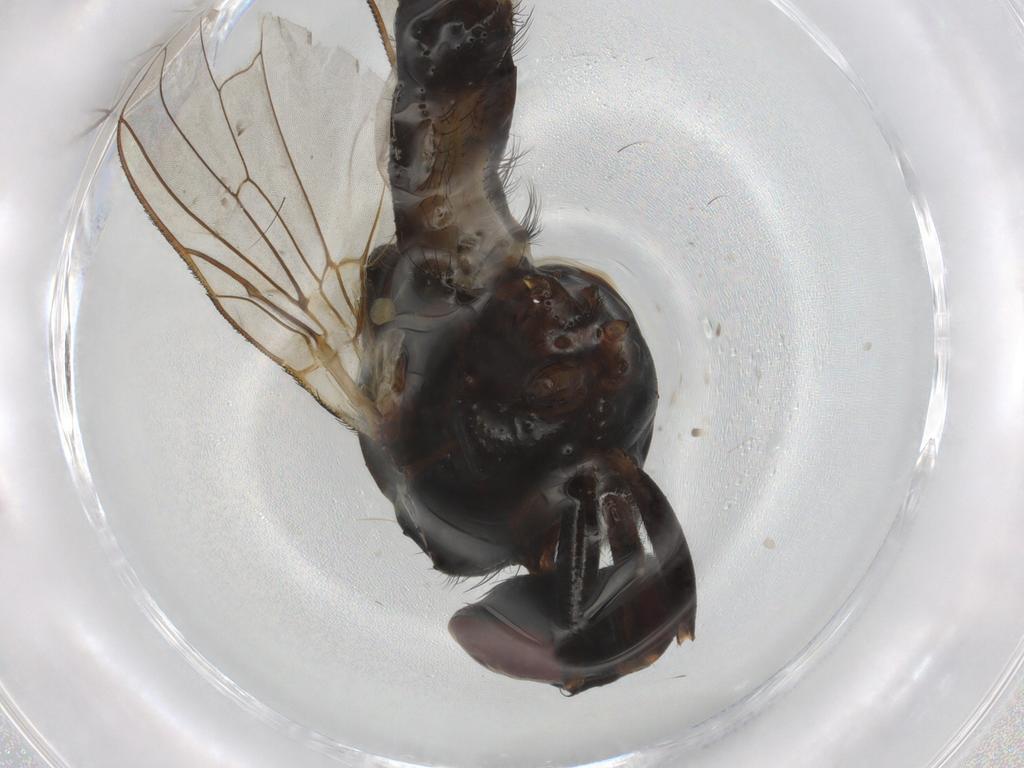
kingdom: Animalia
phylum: Arthropoda
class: Insecta
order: Diptera
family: Anthomyiidae
